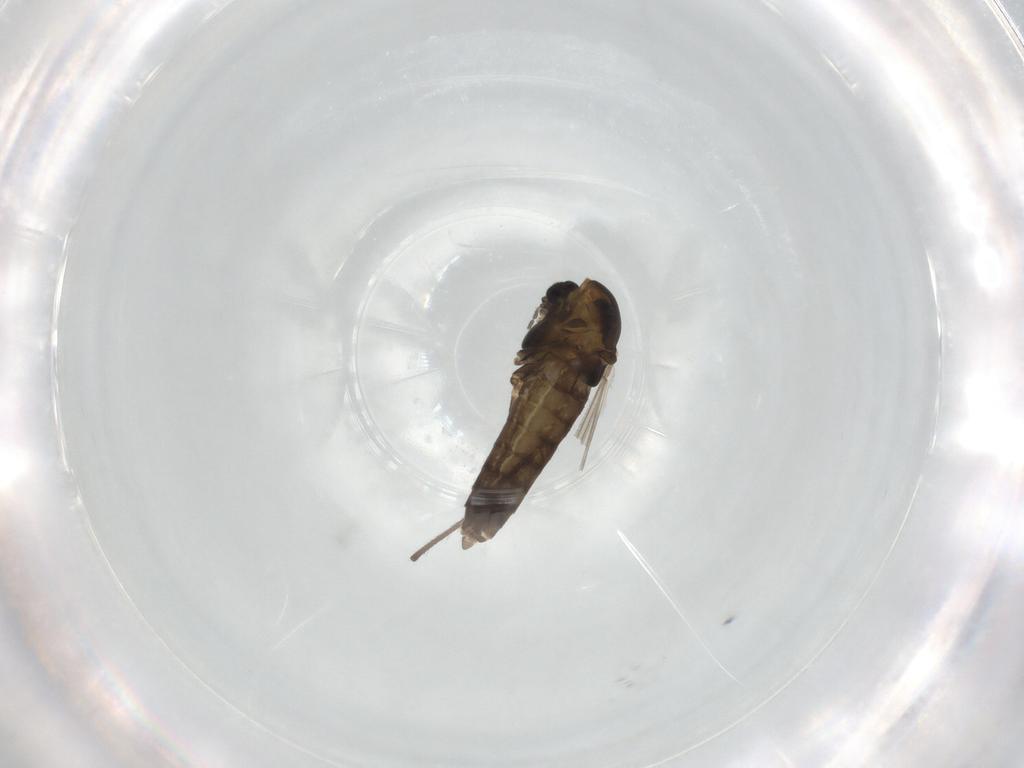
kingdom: Animalia
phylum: Arthropoda
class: Insecta
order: Diptera
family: Chironomidae
